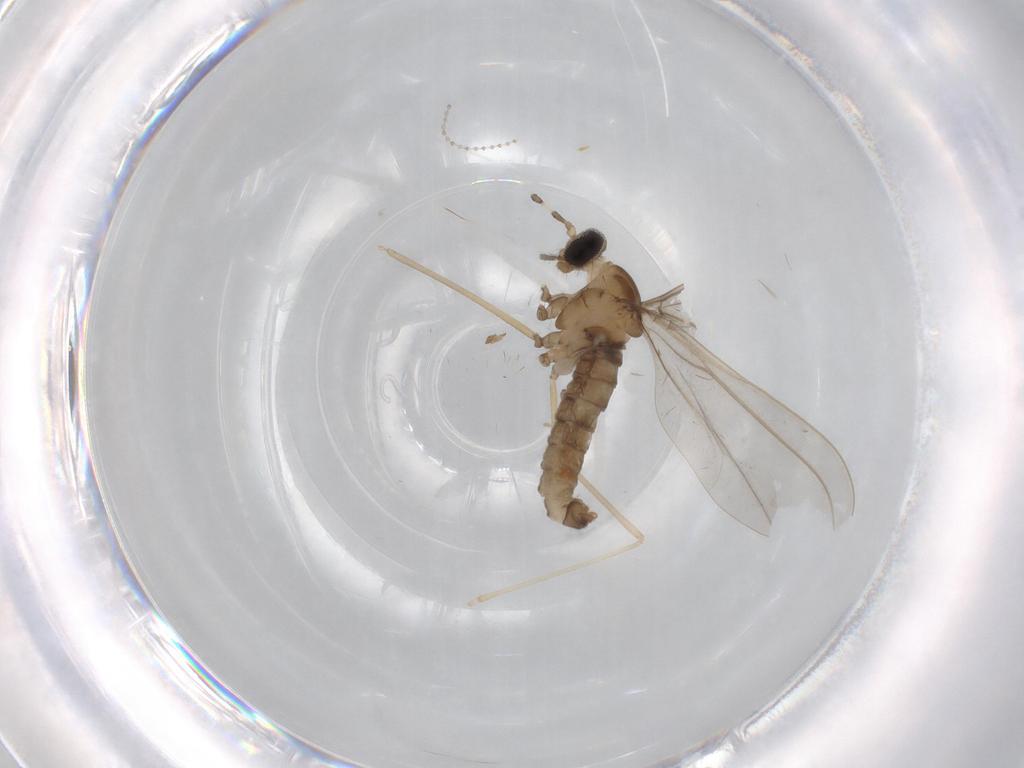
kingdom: Animalia
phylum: Arthropoda
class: Insecta
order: Diptera
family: Cecidomyiidae
